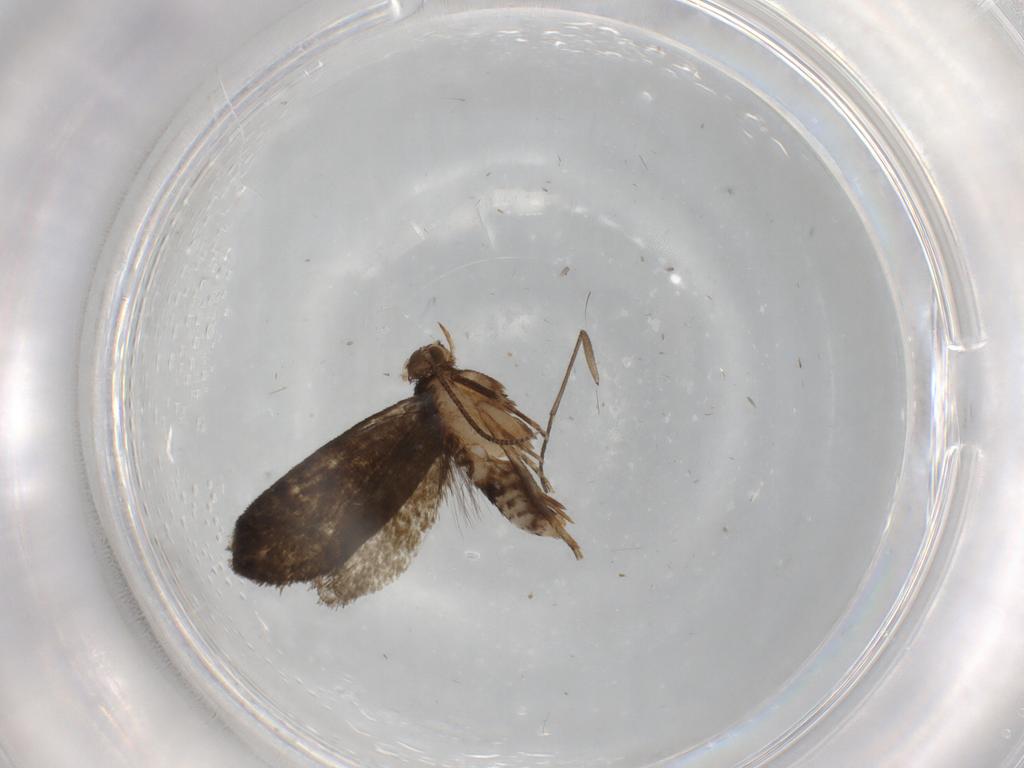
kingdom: Animalia
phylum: Arthropoda
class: Insecta
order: Lepidoptera
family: Tineidae
